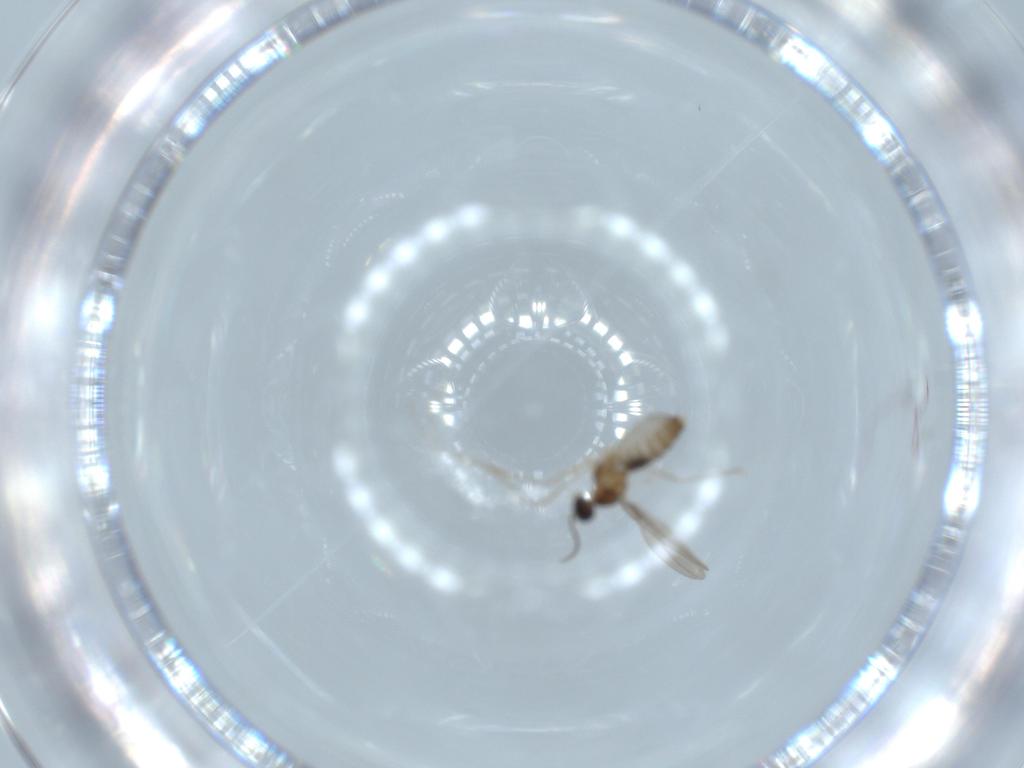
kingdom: Animalia
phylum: Arthropoda
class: Insecta
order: Diptera
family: Cecidomyiidae
